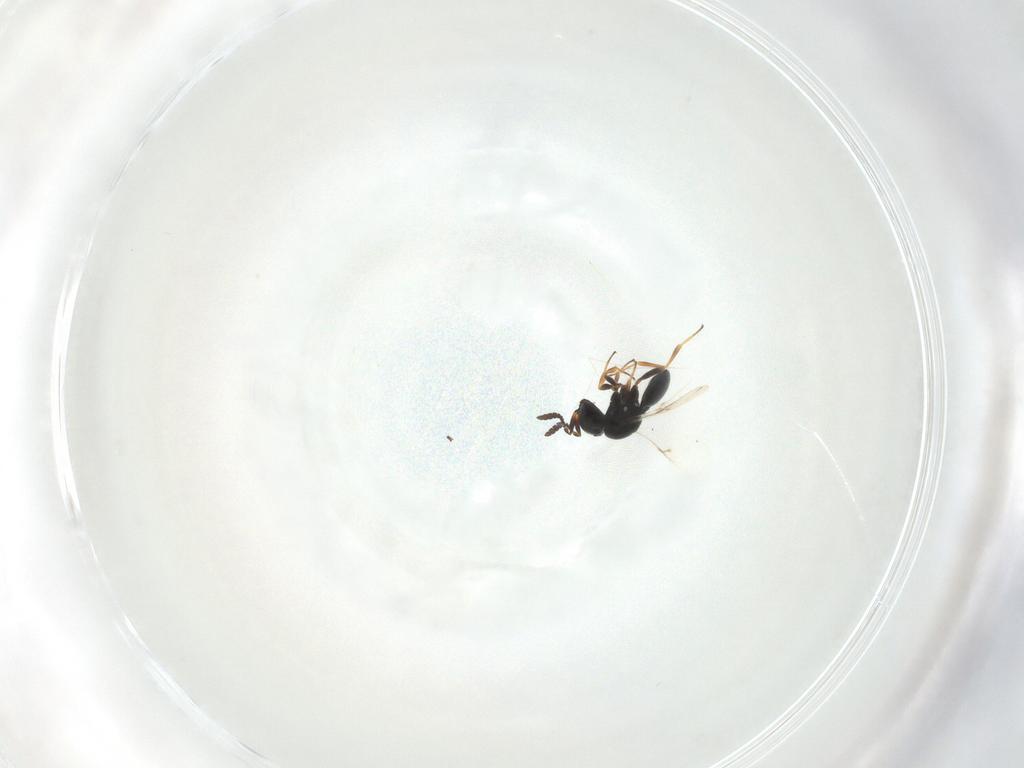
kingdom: Animalia
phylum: Arthropoda
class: Insecta
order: Hymenoptera
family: Scelionidae
